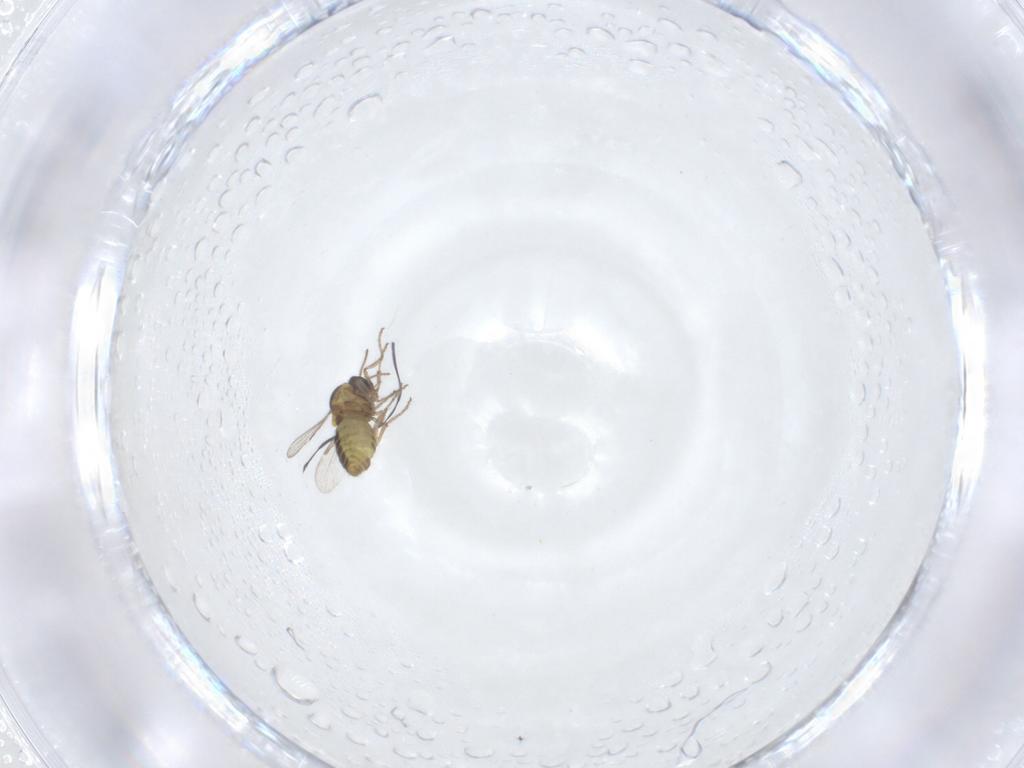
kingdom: Animalia
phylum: Arthropoda
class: Insecta
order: Diptera
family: Ceratopogonidae
